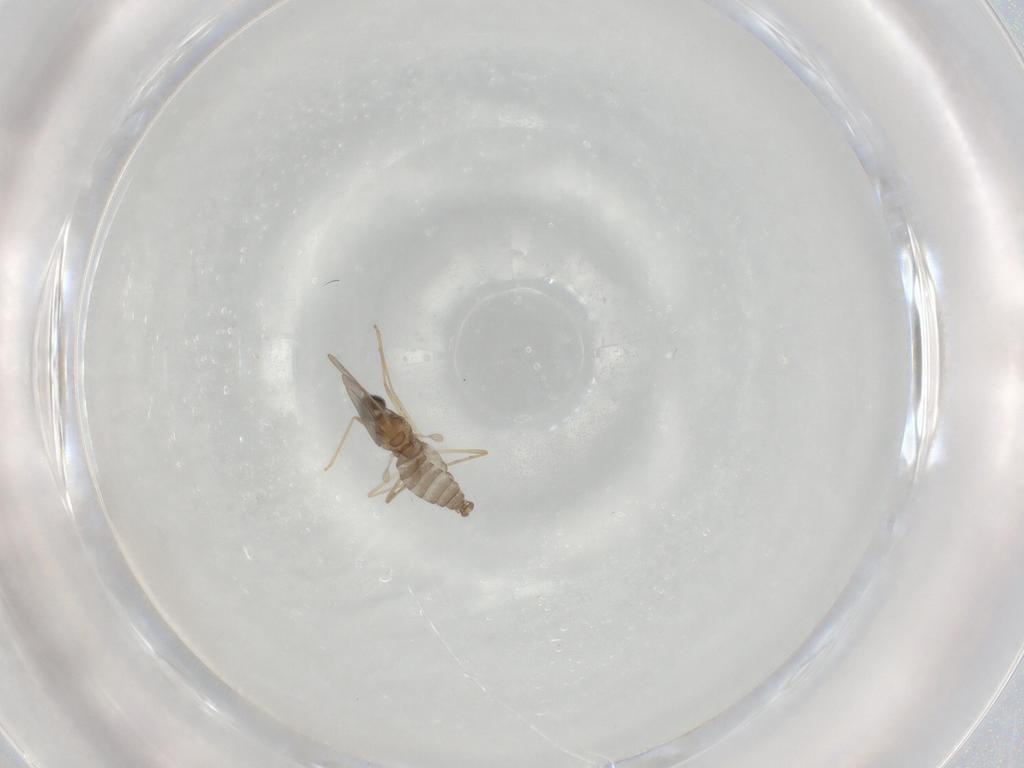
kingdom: Animalia
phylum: Arthropoda
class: Insecta
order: Diptera
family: Cecidomyiidae
